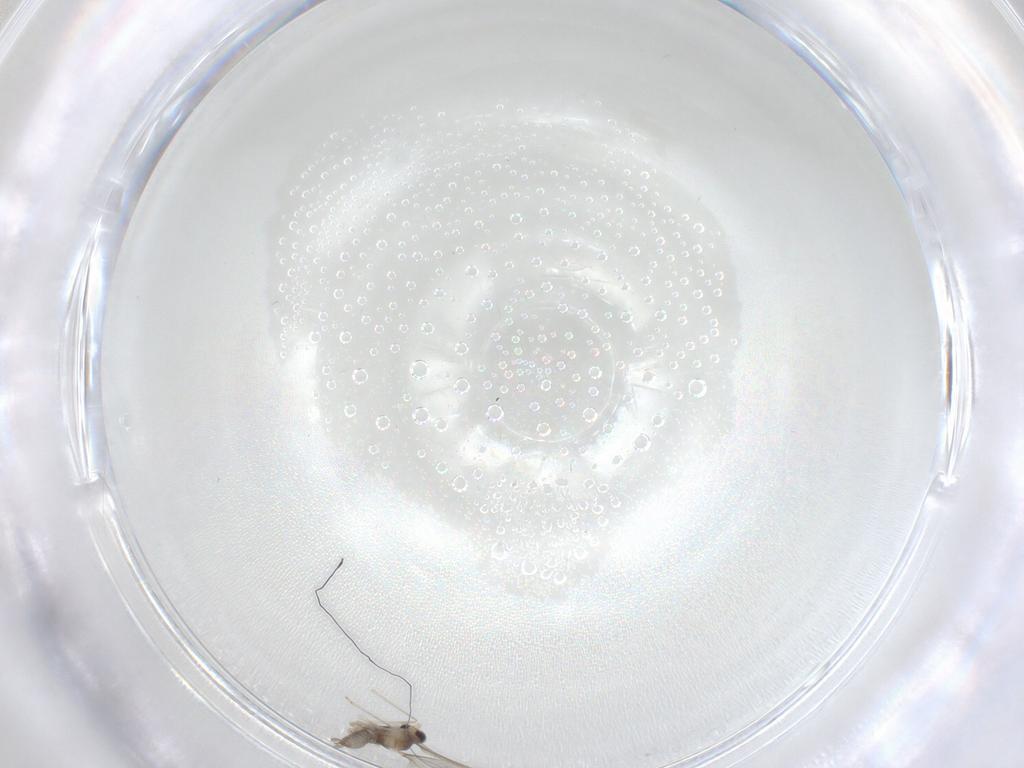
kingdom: Animalia
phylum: Arthropoda
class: Insecta
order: Diptera
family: Cecidomyiidae
